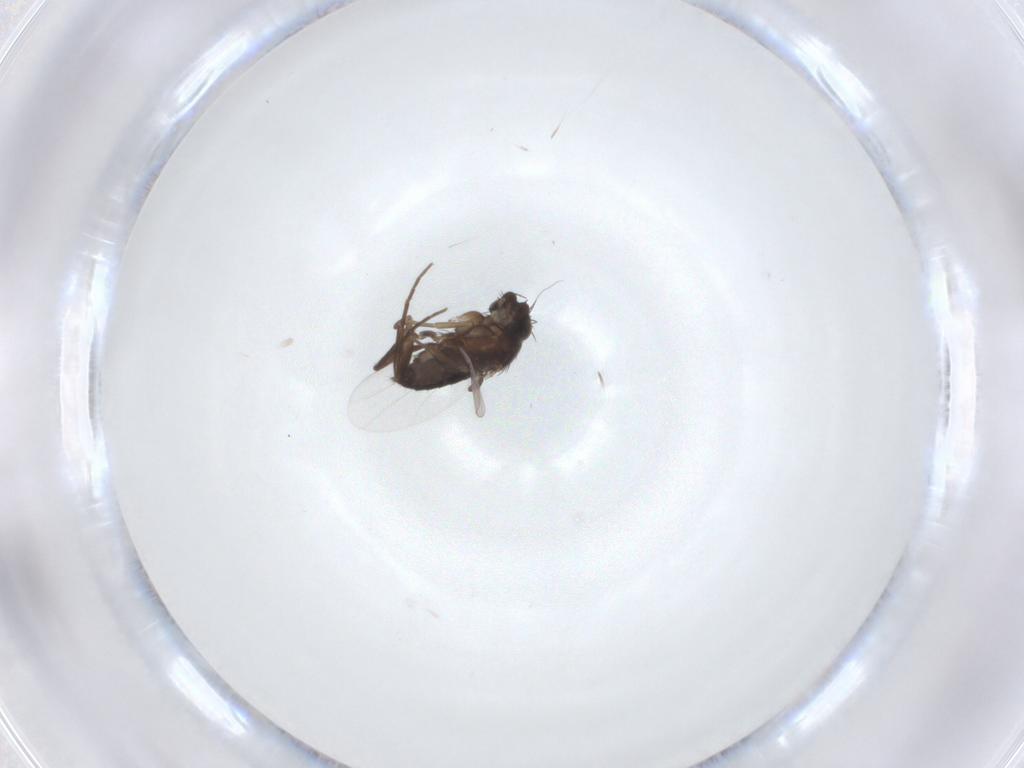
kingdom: Animalia
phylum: Arthropoda
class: Insecta
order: Diptera
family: Phoridae
